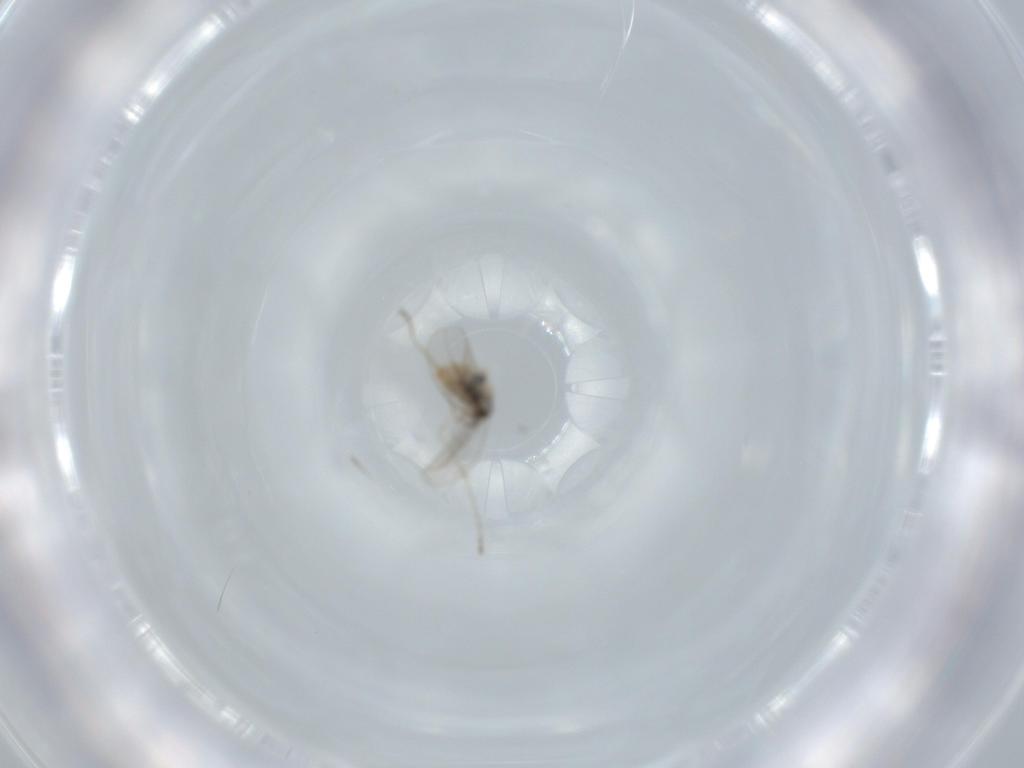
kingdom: Animalia
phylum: Arthropoda
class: Insecta
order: Diptera
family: Cecidomyiidae
